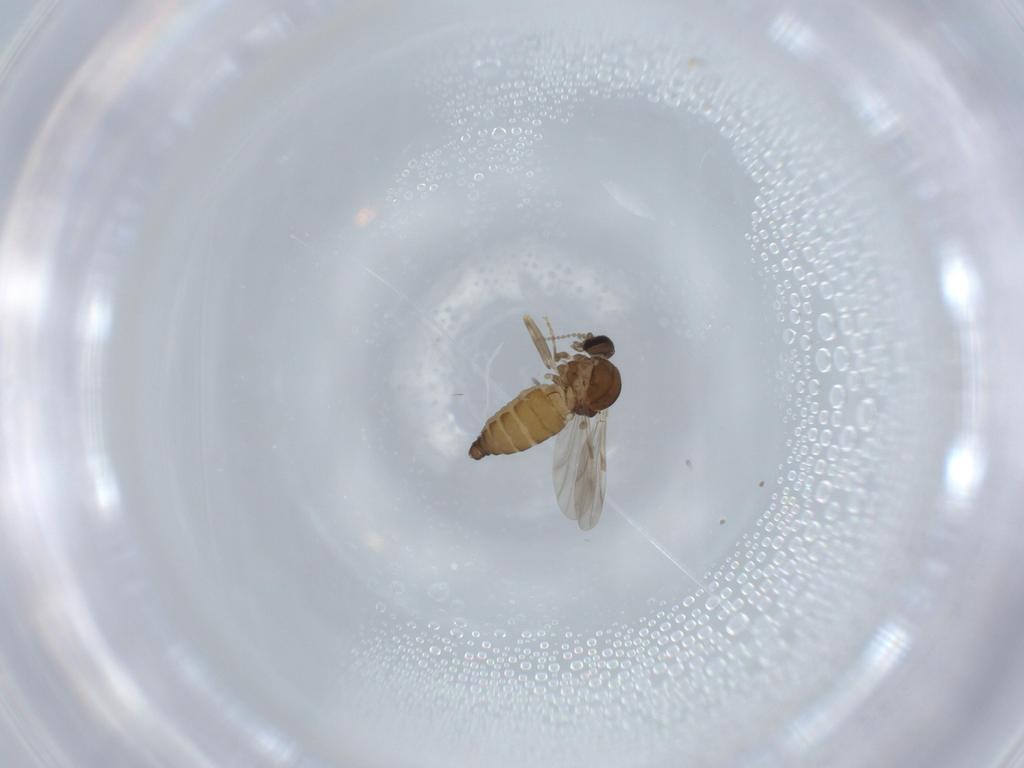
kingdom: Animalia
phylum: Arthropoda
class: Insecta
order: Diptera
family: Ceratopogonidae
